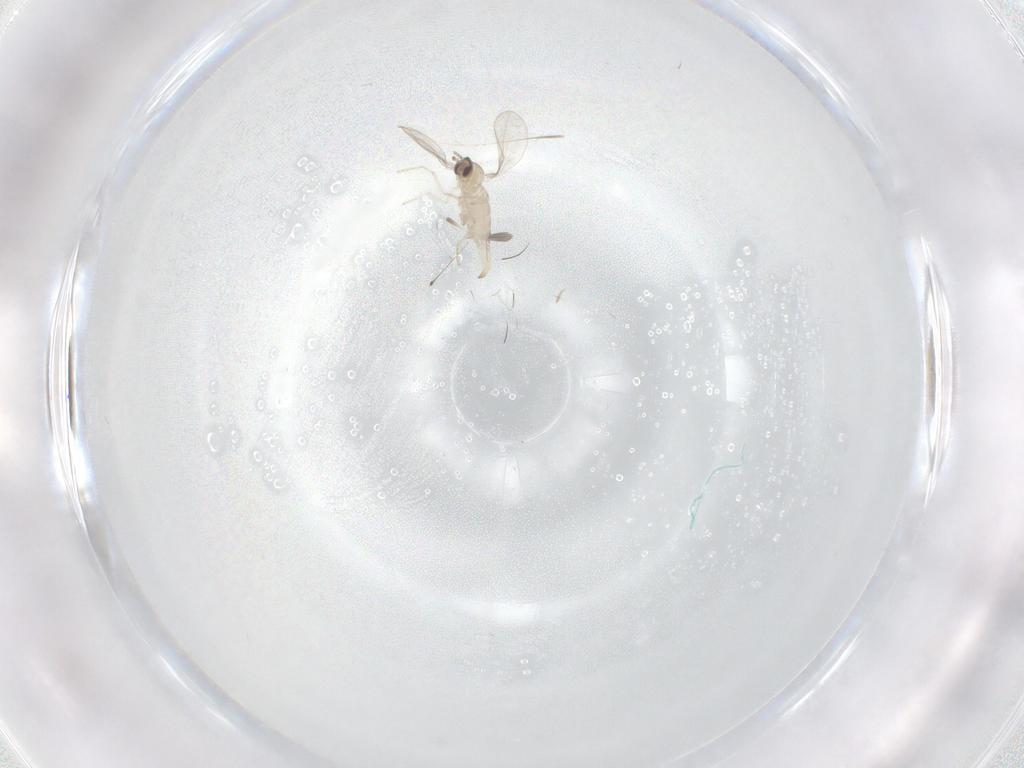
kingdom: Animalia
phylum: Arthropoda
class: Insecta
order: Diptera
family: Cecidomyiidae
